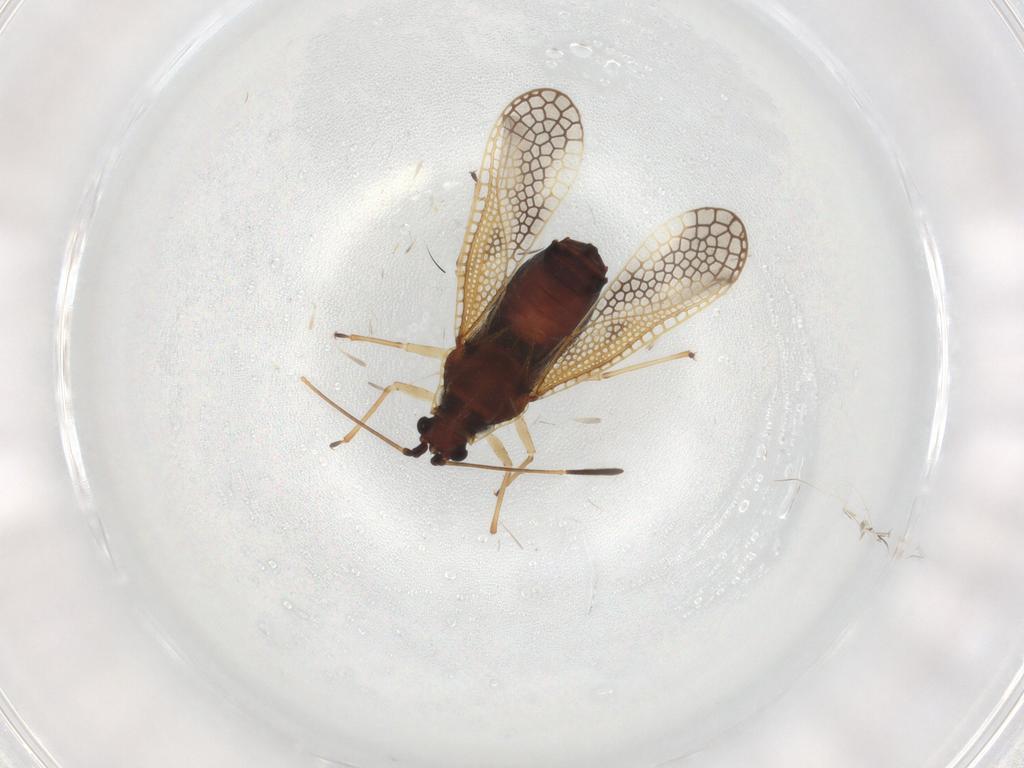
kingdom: Animalia
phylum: Arthropoda
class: Insecta
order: Hemiptera
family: Tingidae
